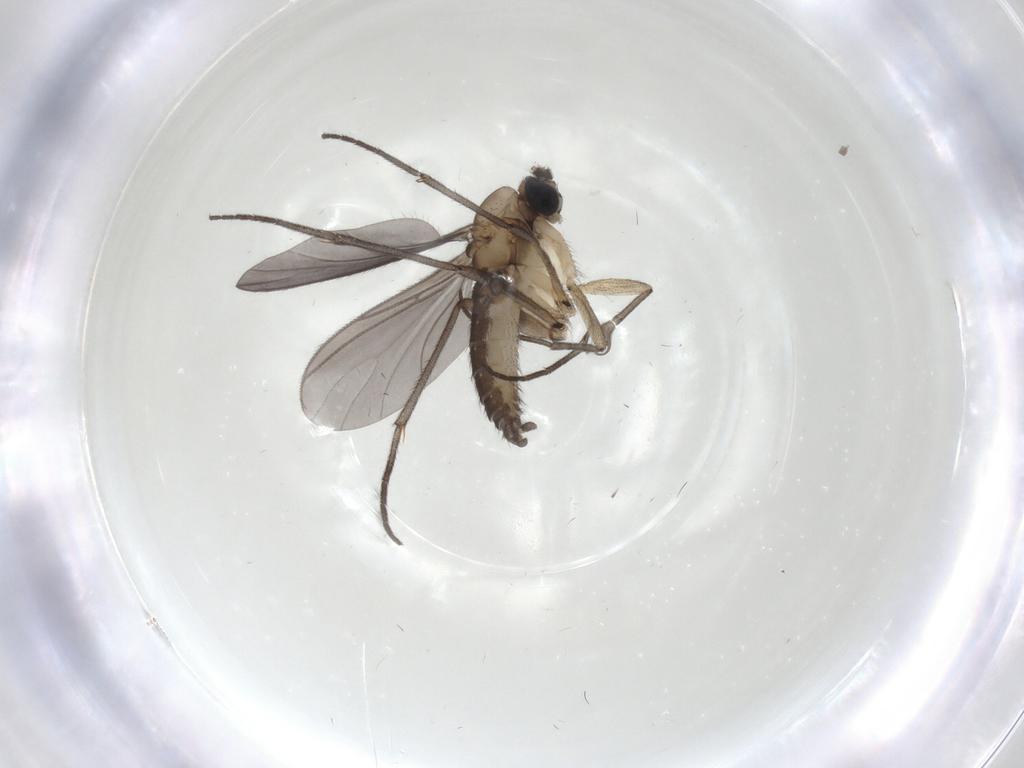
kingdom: Animalia
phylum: Arthropoda
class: Insecta
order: Diptera
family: Sciaridae
